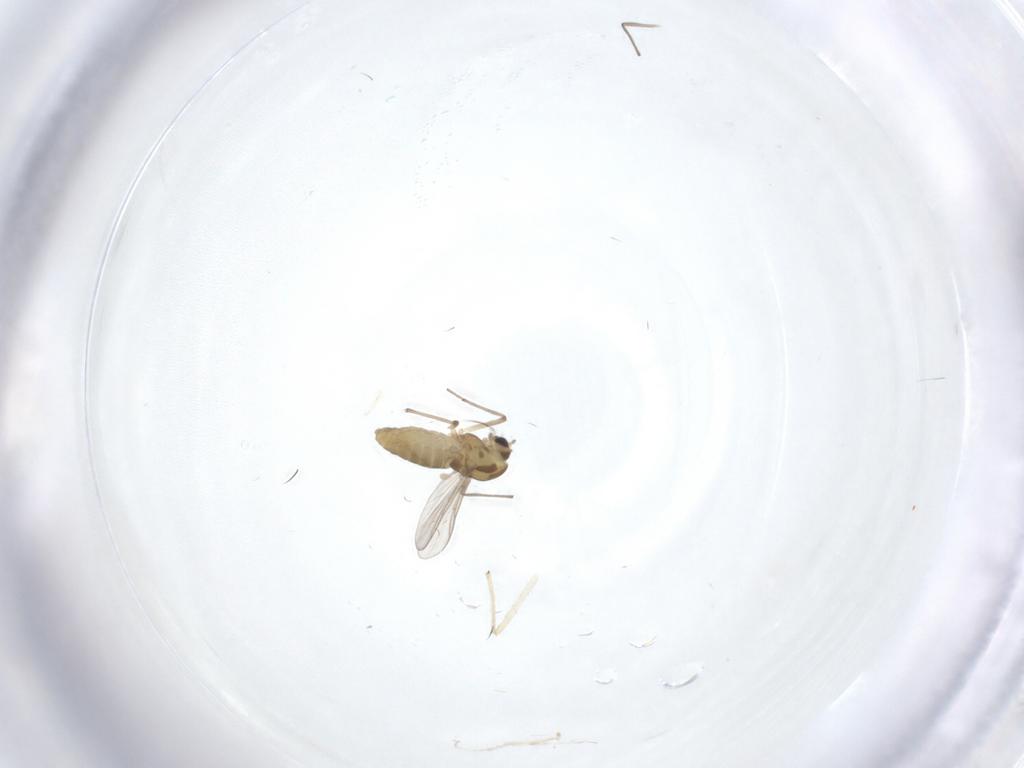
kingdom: Animalia
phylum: Arthropoda
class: Insecta
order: Diptera
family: Chironomidae
